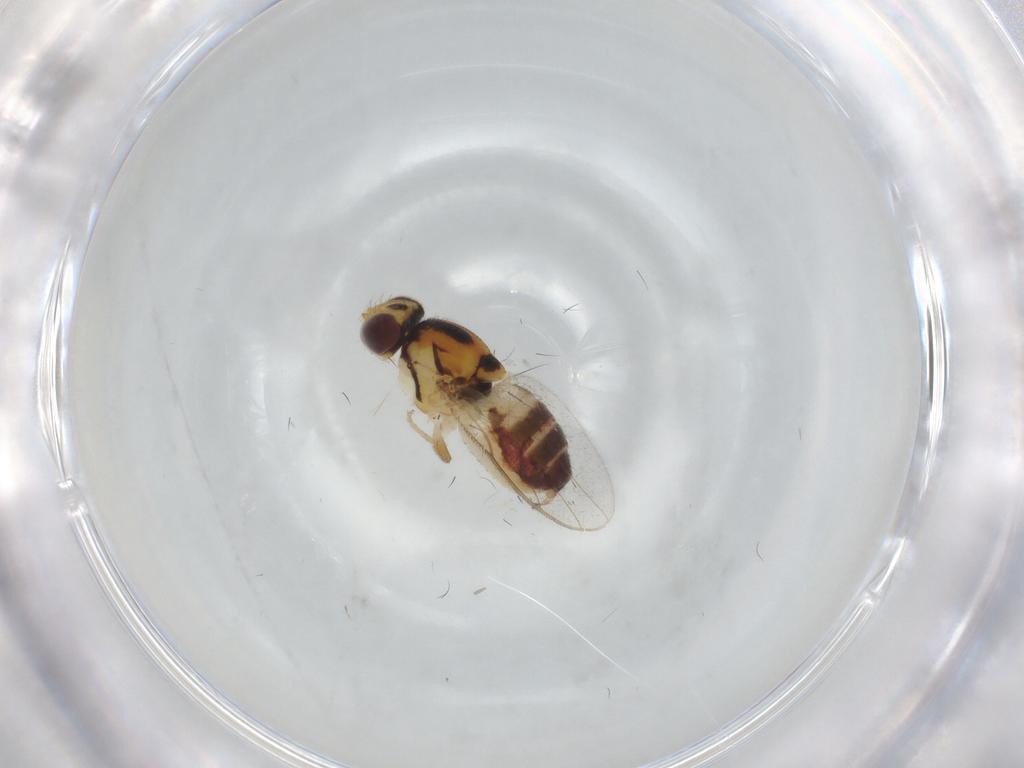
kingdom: Animalia
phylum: Arthropoda
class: Insecta
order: Diptera
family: Chloropidae
